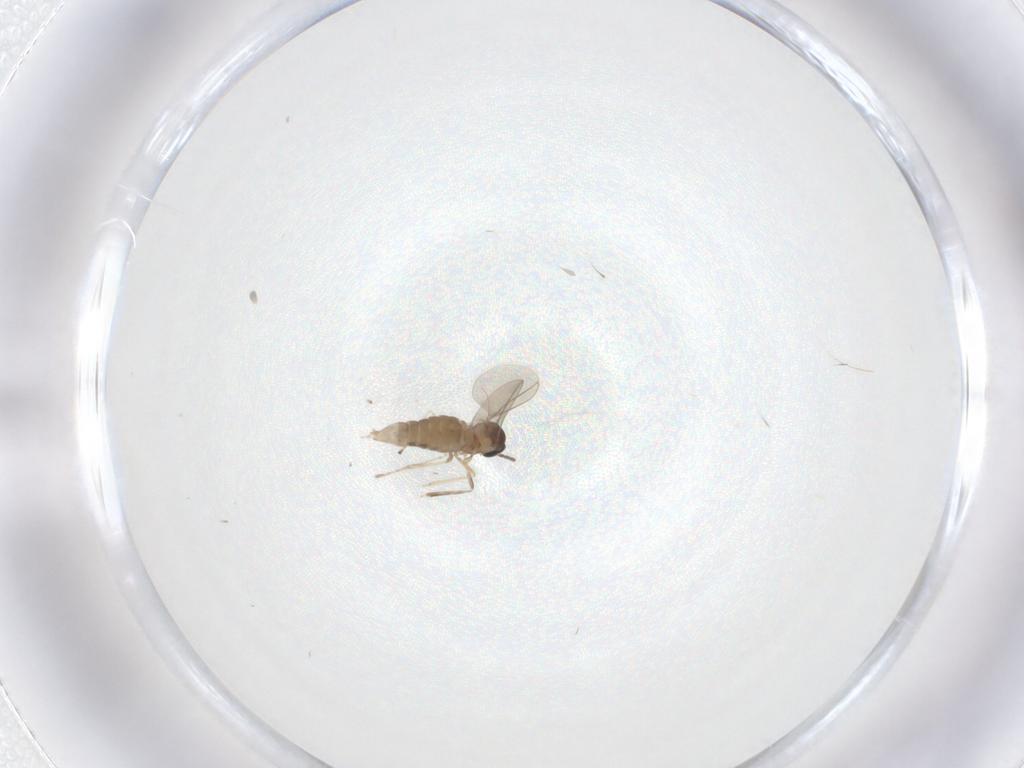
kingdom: Animalia
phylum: Arthropoda
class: Insecta
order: Diptera
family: Cecidomyiidae
